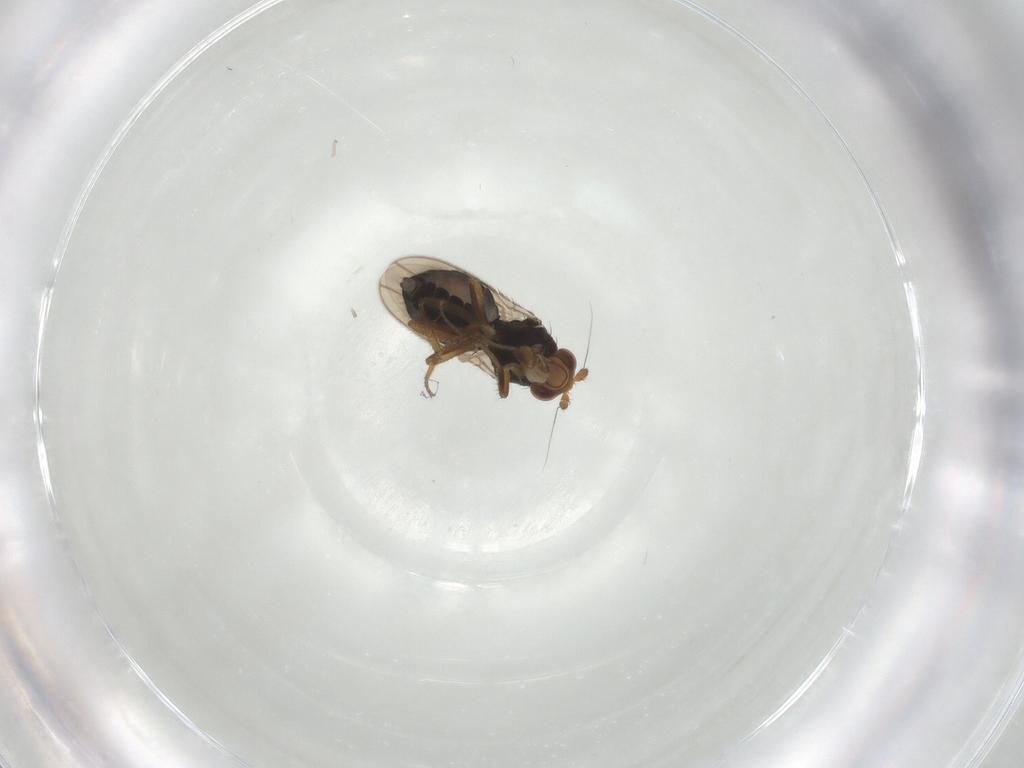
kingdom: Animalia
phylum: Arthropoda
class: Insecta
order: Diptera
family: Sphaeroceridae
